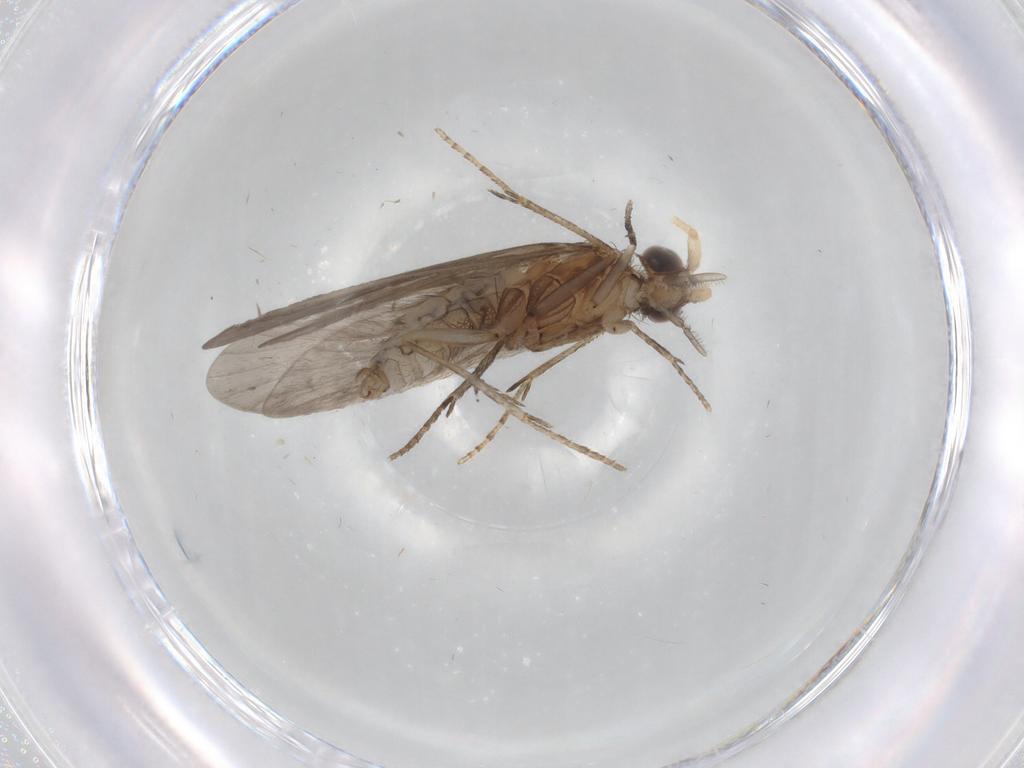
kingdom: Animalia
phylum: Arthropoda
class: Insecta
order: Trichoptera
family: Helicopsychidae
